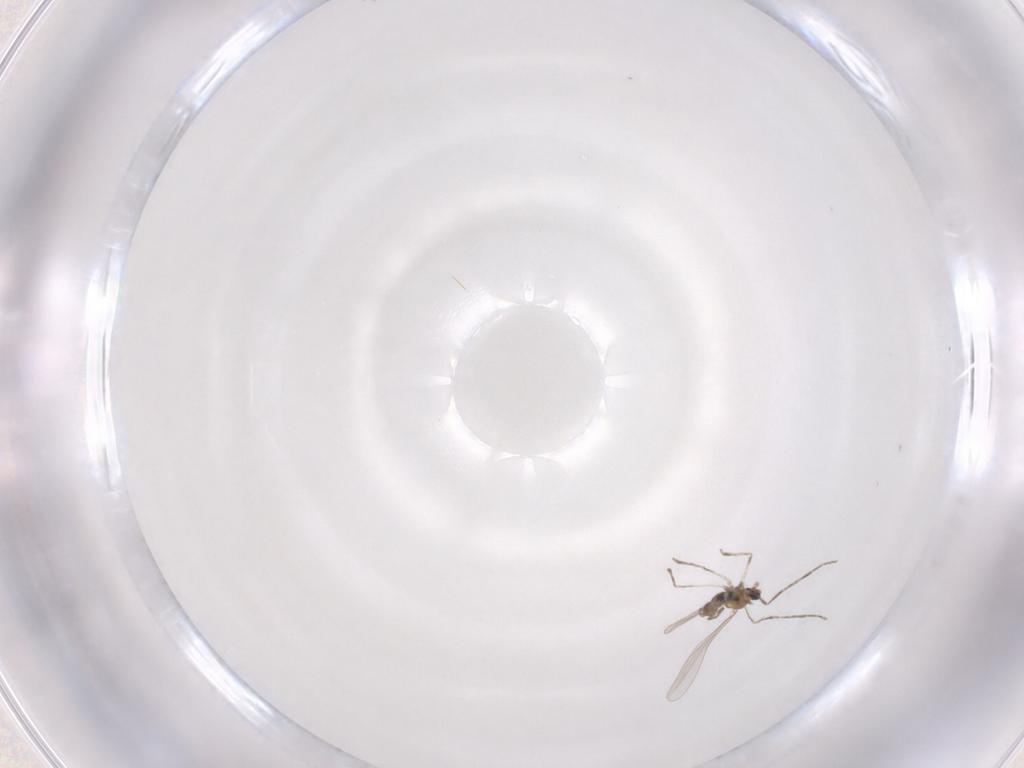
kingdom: Animalia
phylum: Arthropoda
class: Insecta
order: Diptera
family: Cecidomyiidae
